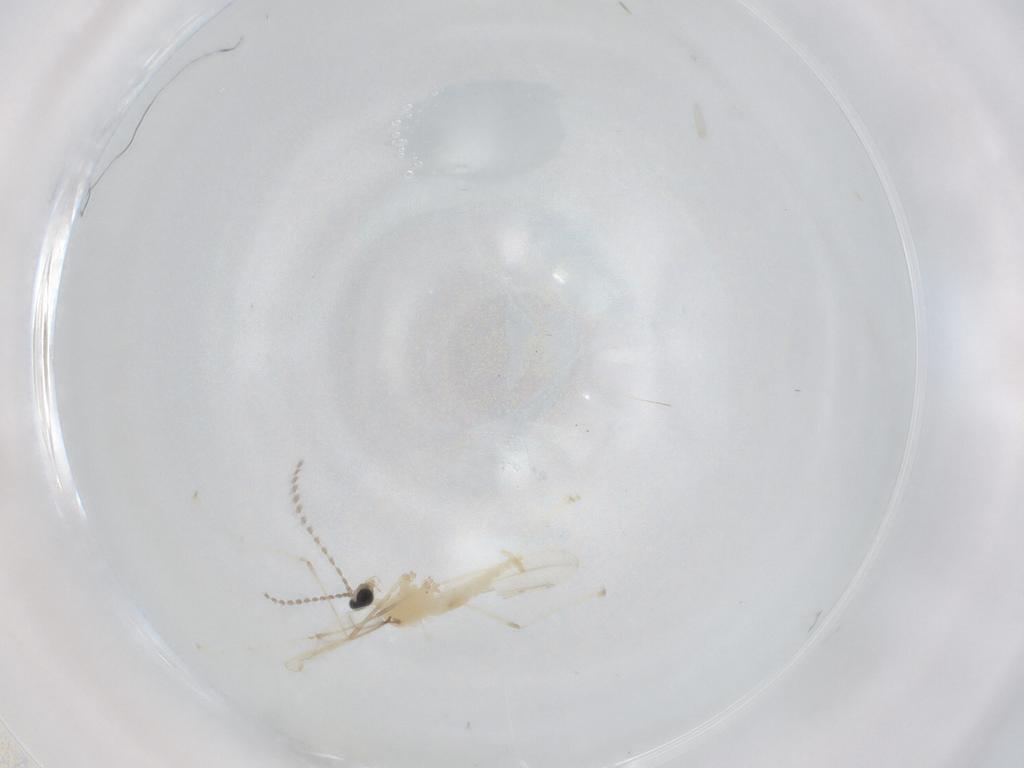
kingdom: Animalia
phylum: Arthropoda
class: Insecta
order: Diptera
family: Cecidomyiidae
